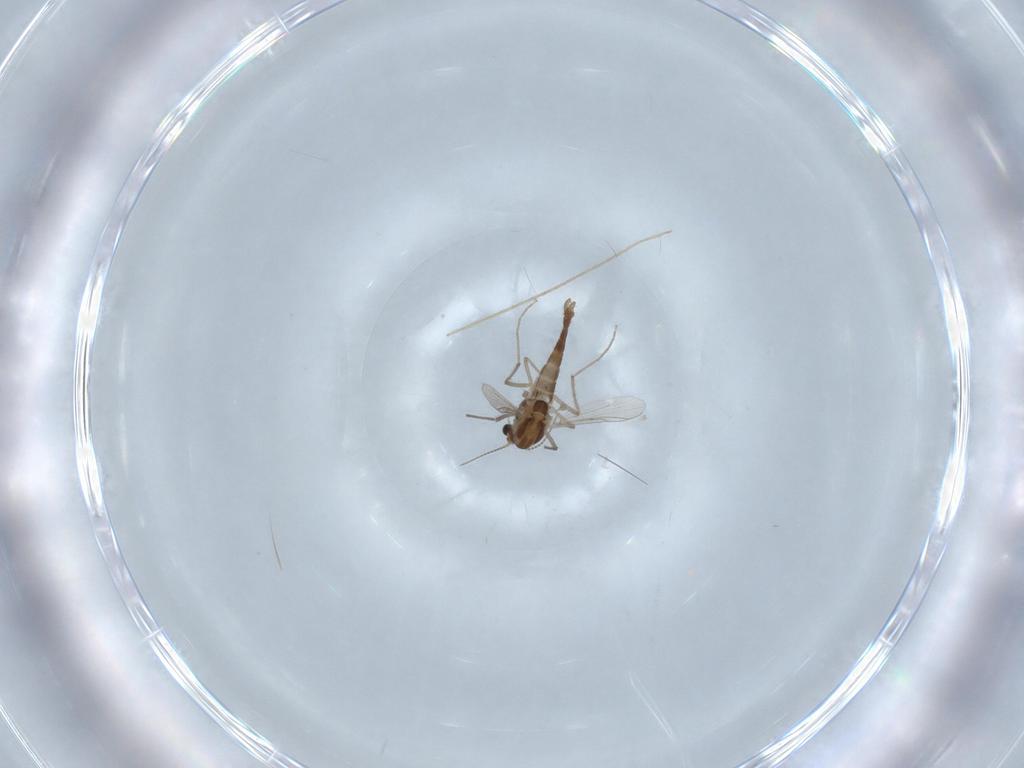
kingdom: Animalia
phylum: Arthropoda
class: Insecta
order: Diptera
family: Chironomidae
